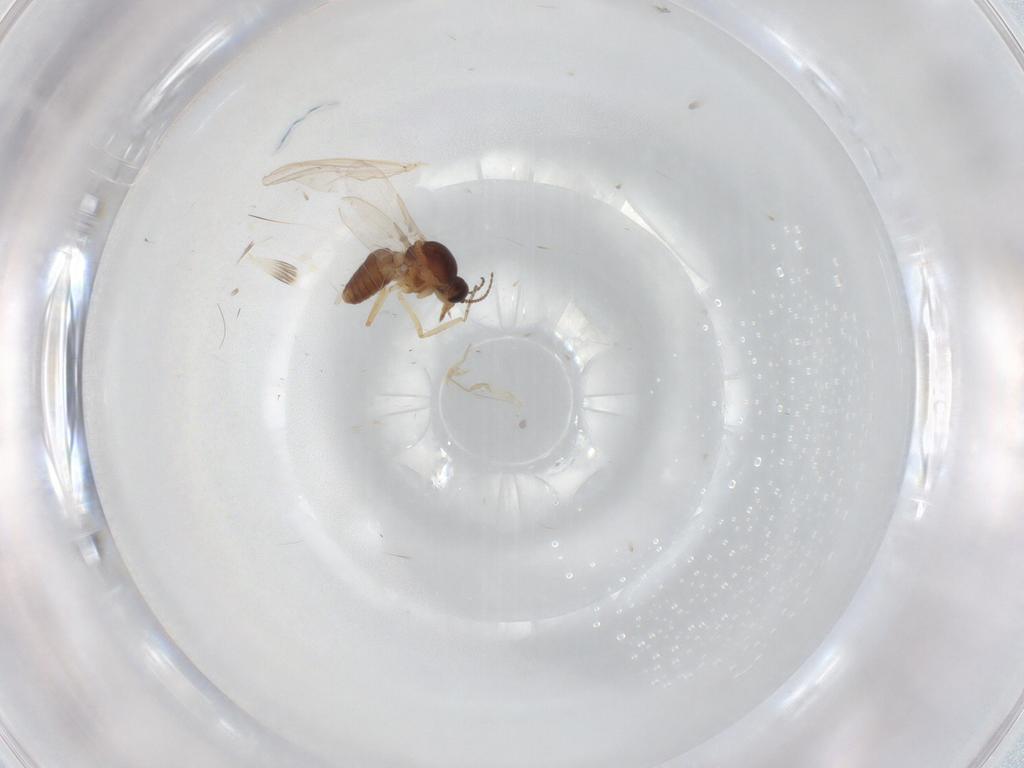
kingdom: Animalia
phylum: Arthropoda
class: Insecta
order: Diptera
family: Ceratopogonidae
